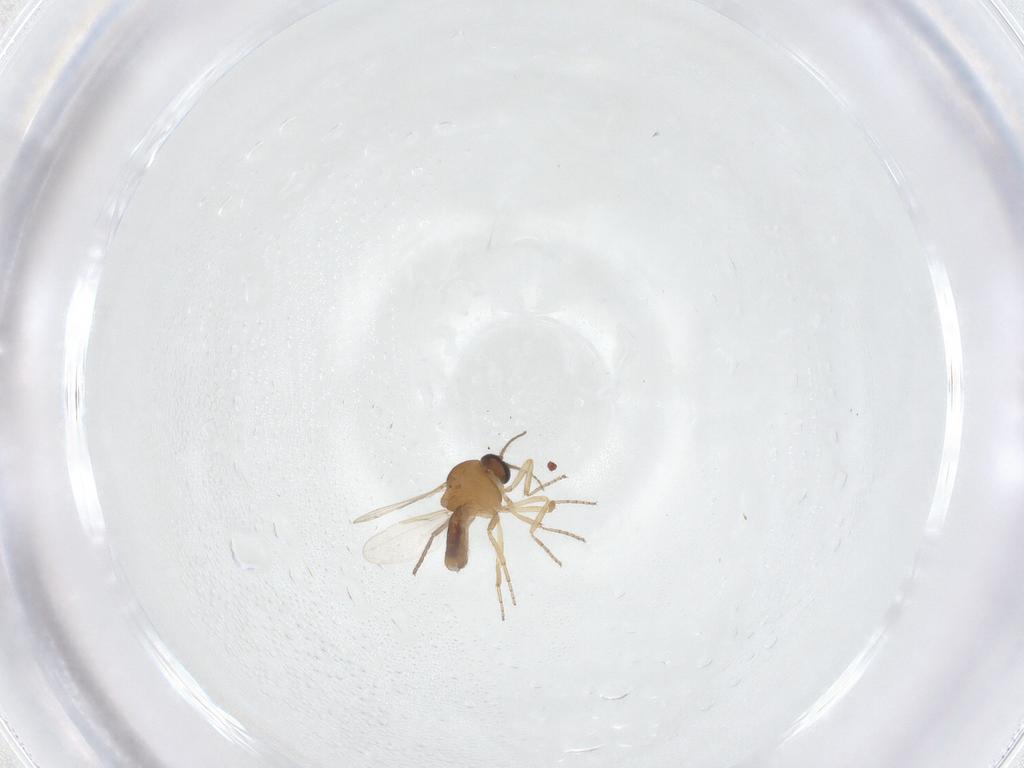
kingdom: Animalia
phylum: Arthropoda
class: Insecta
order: Diptera
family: Ceratopogonidae
